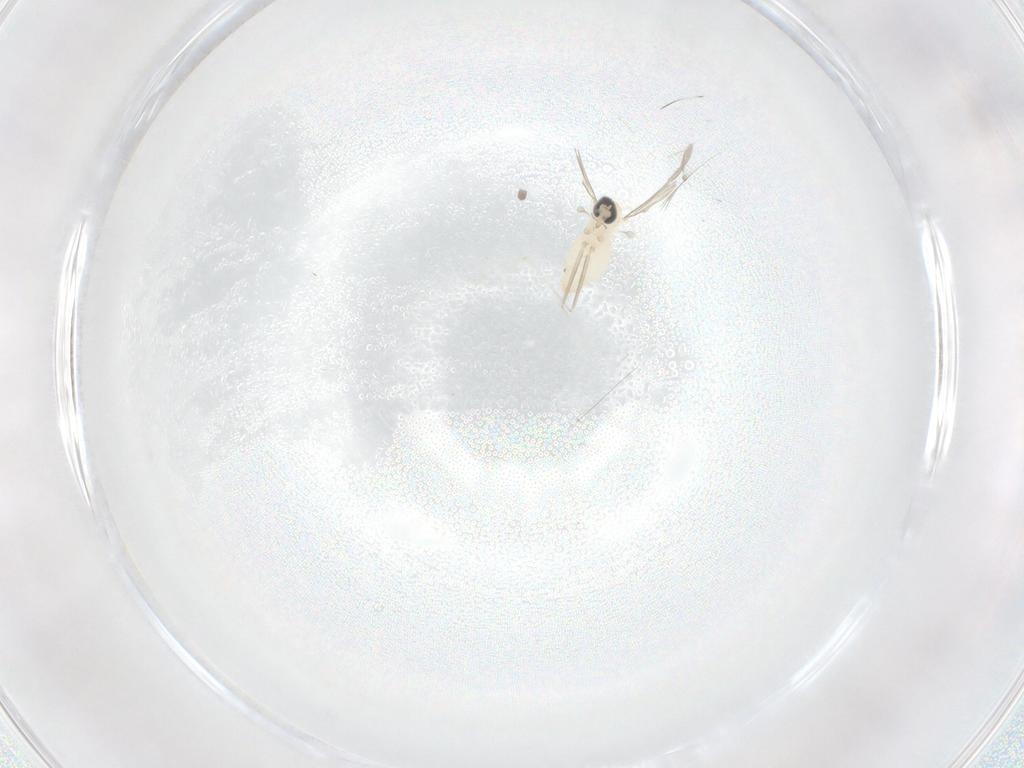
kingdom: Animalia
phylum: Arthropoda
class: Insecta
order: Diptera
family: Cecidomyiidae
